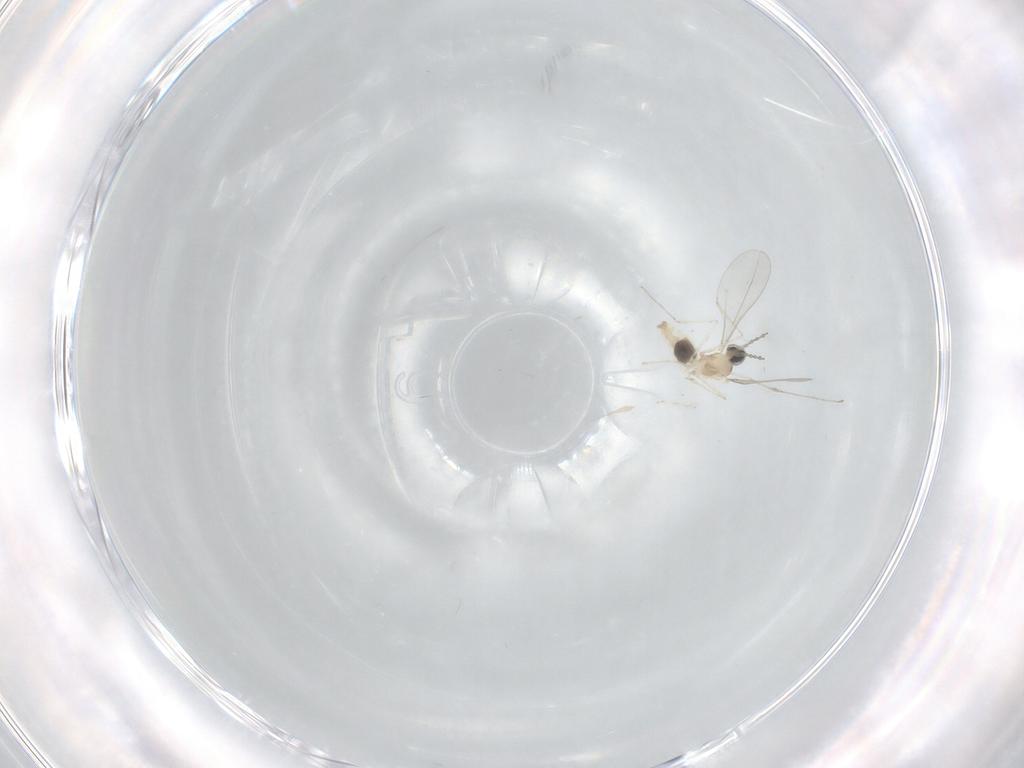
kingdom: Animalia
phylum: Arthropoda
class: Insecta
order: Diptera
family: Cecidomyiidae
